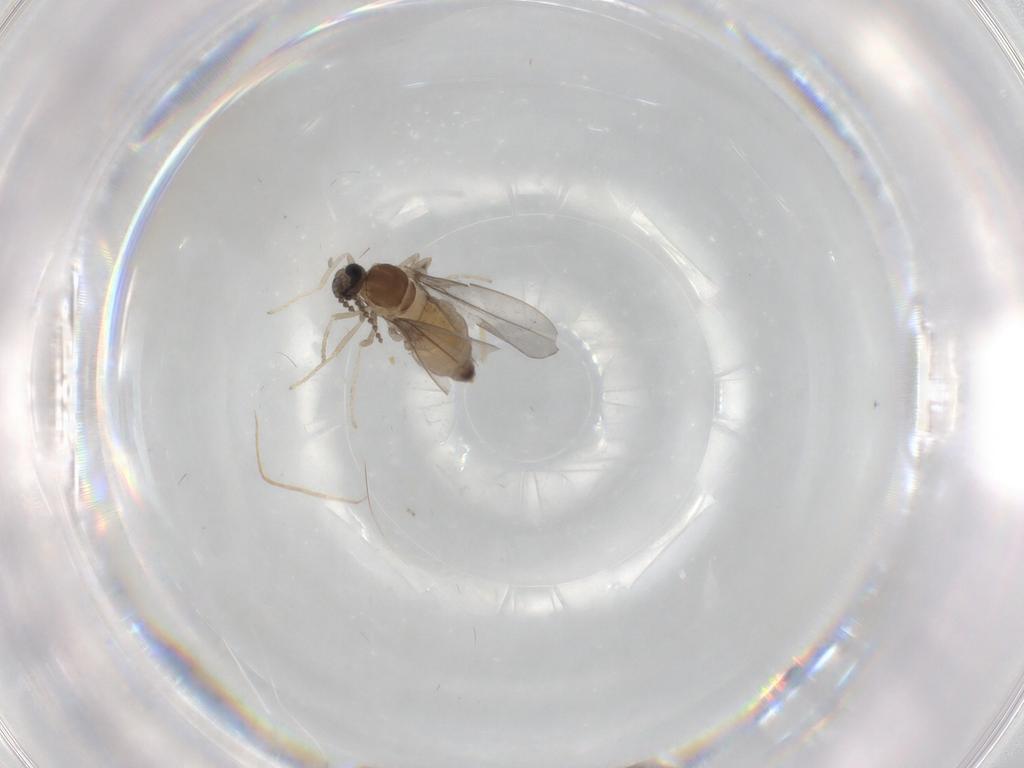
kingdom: Animalia
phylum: Arthropoda
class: Insecta
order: Diptera
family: Cecidomyiidae
